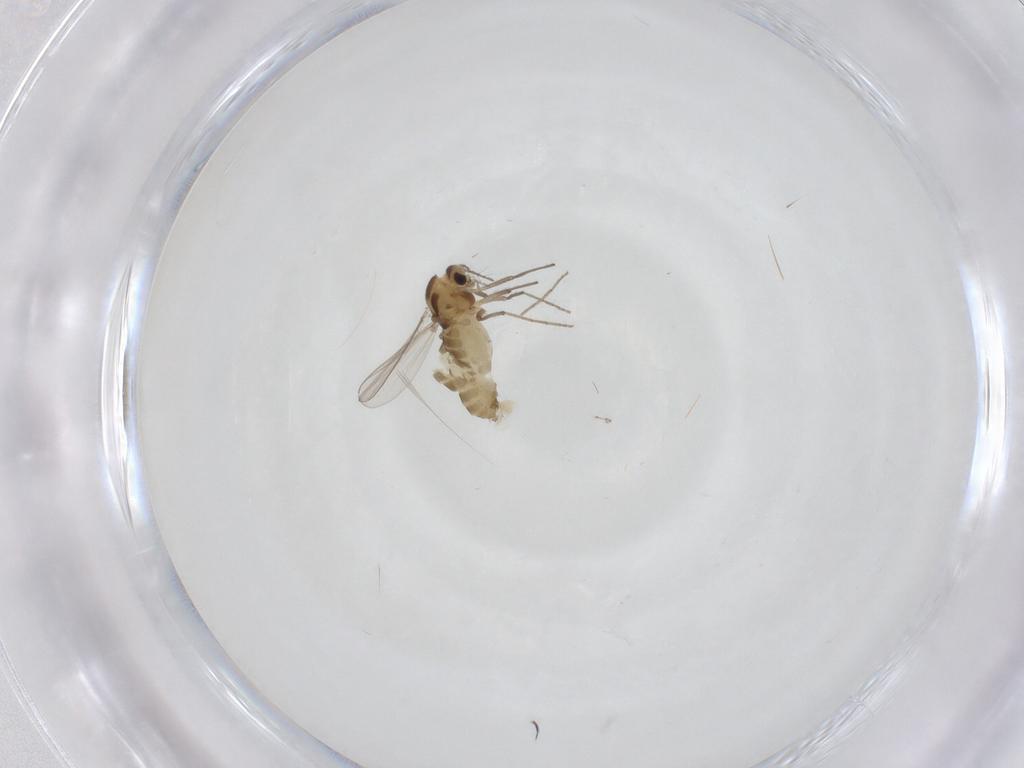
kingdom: Animalia
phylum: Arthropoda
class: Insecta
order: Diptera
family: Chironomidae
